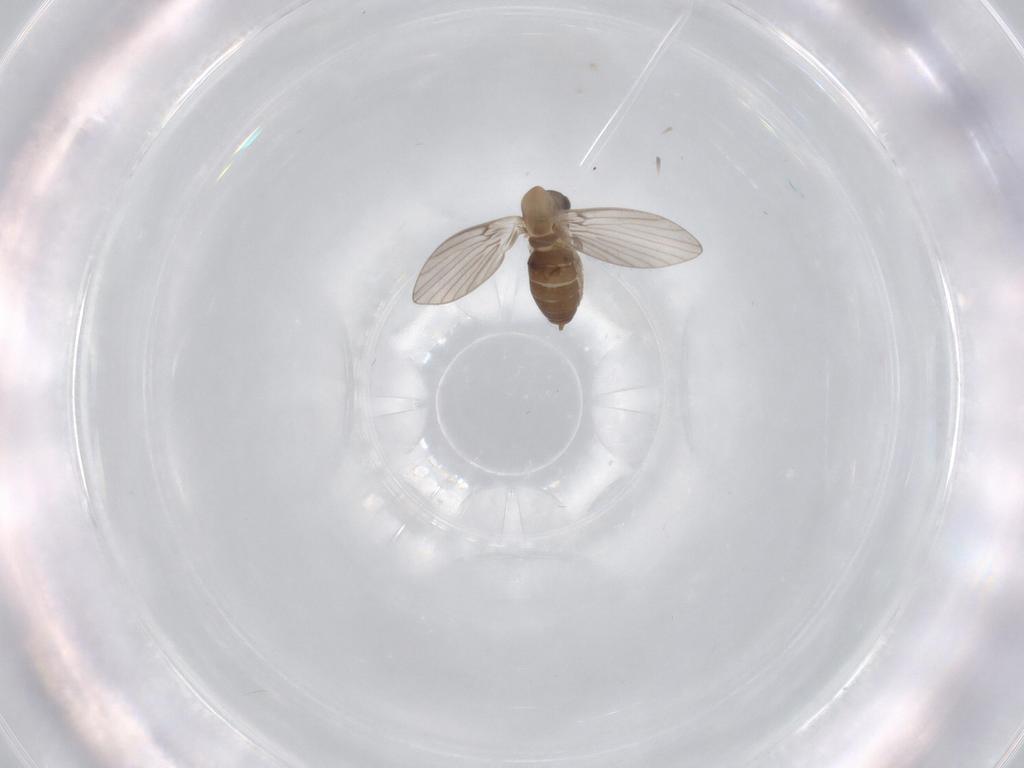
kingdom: Animalia
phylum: Arthropoda
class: Insecta
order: Diptera
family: Psychodidae
